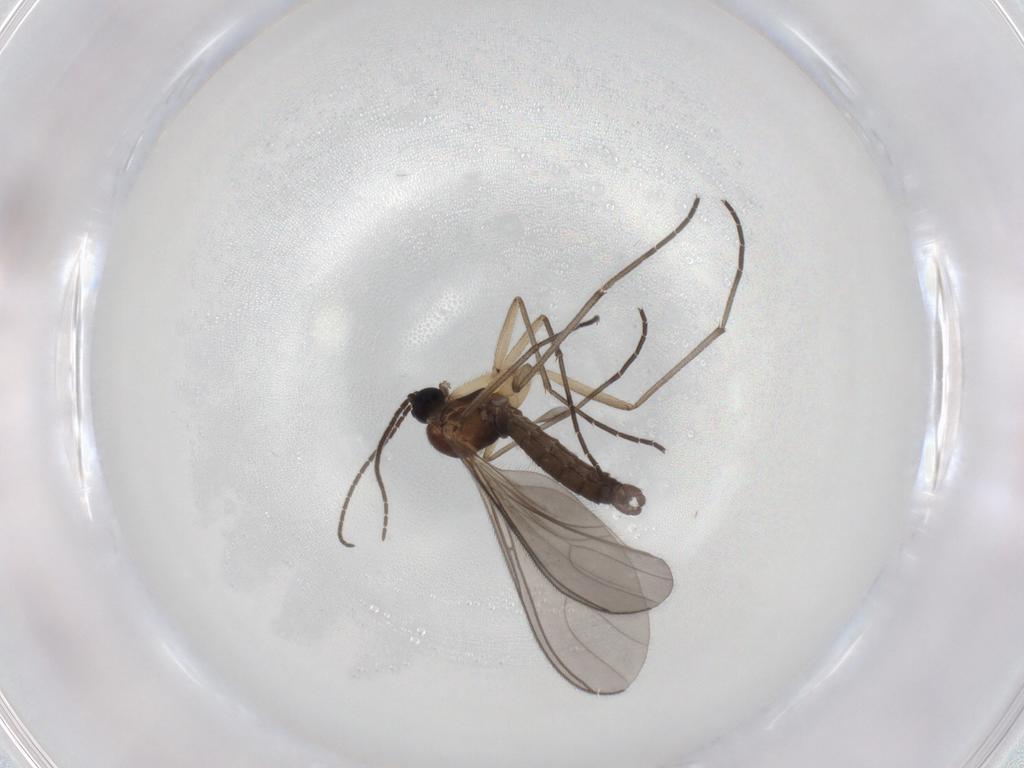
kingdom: Animalia
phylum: Arthropoda
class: Insecta
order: Diptera
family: Sciaridae
